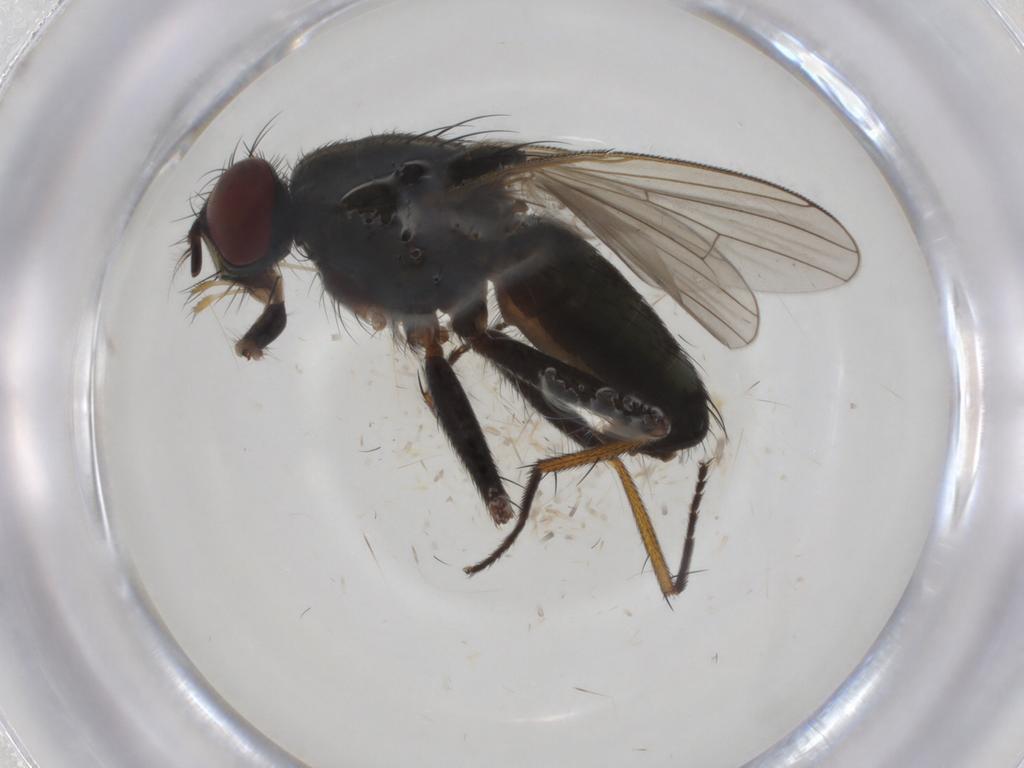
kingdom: Animalia
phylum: Arthropoda
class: Insecta
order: Diptera
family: Muscidae
